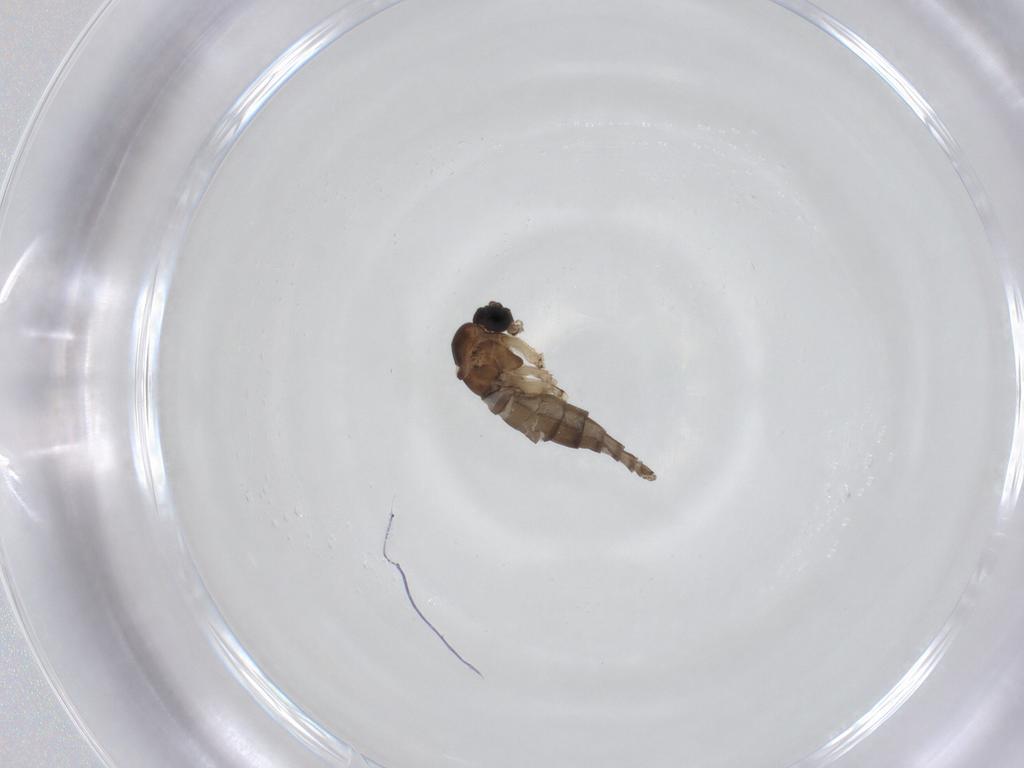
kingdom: Animalia
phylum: Arthropoda
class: Insecta
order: Diptera
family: Sciaridae
